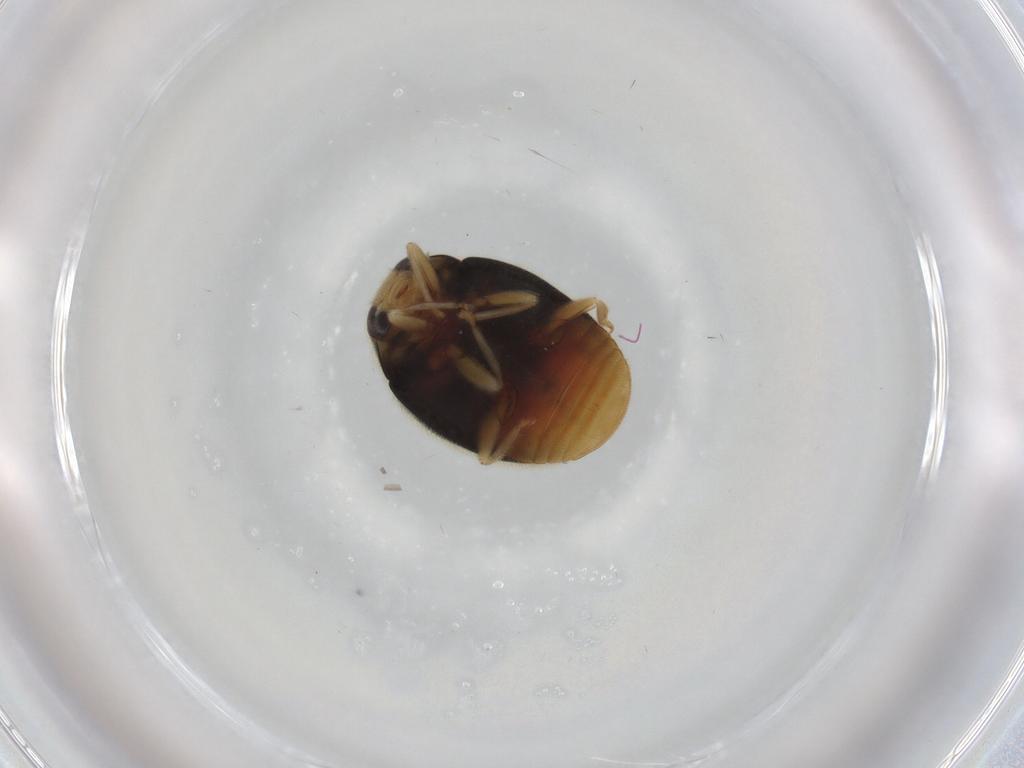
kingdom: Animalia
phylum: Arthropoda
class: Insecta
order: Coleoptera
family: Coccinellidae
